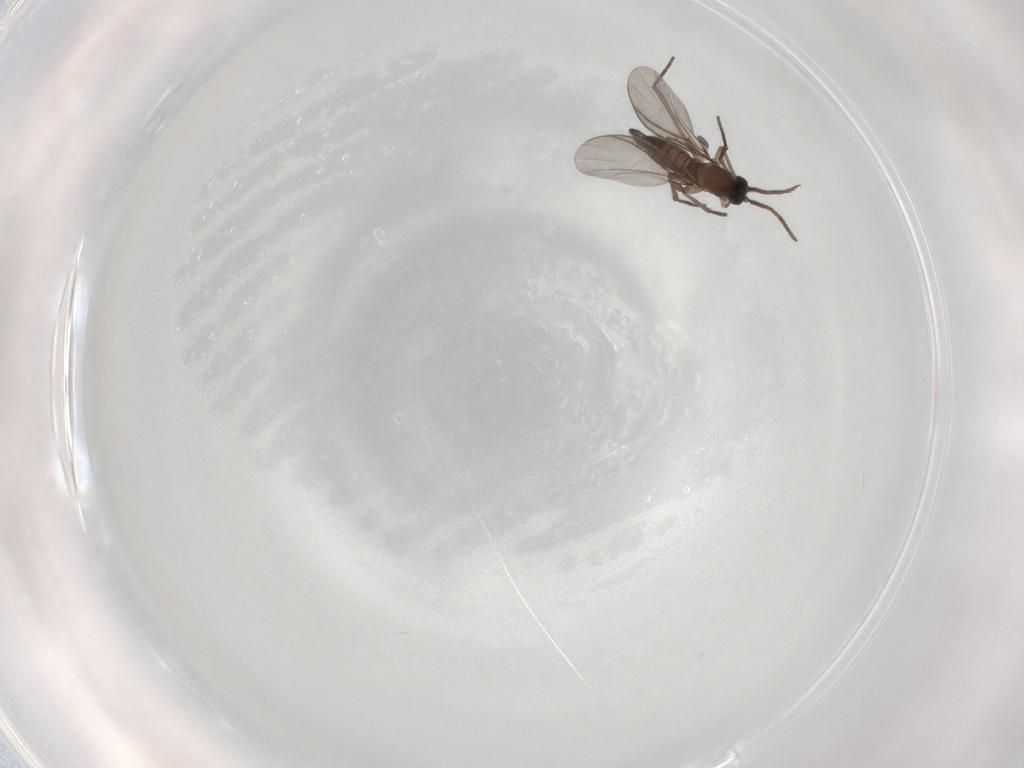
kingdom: Animalia
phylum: Arthropoda
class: Insecta
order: Diptera
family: Sciaridae
